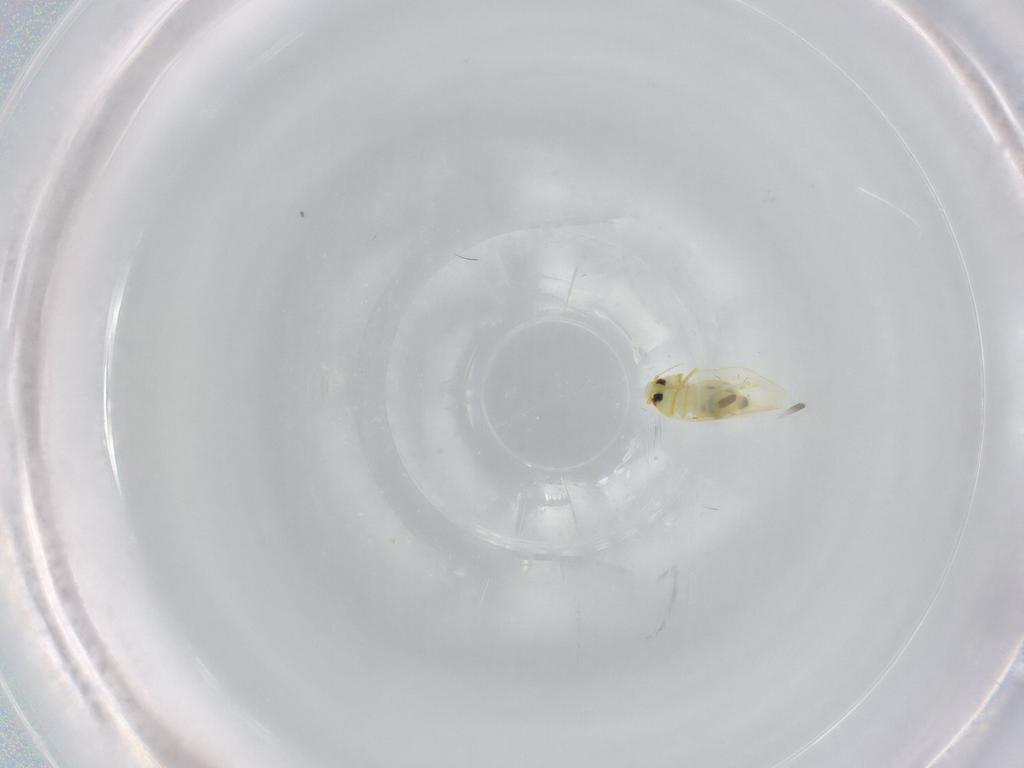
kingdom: Animalia
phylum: Arthropoda
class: Insecta
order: Hemiptera
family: Aleyrodidae
